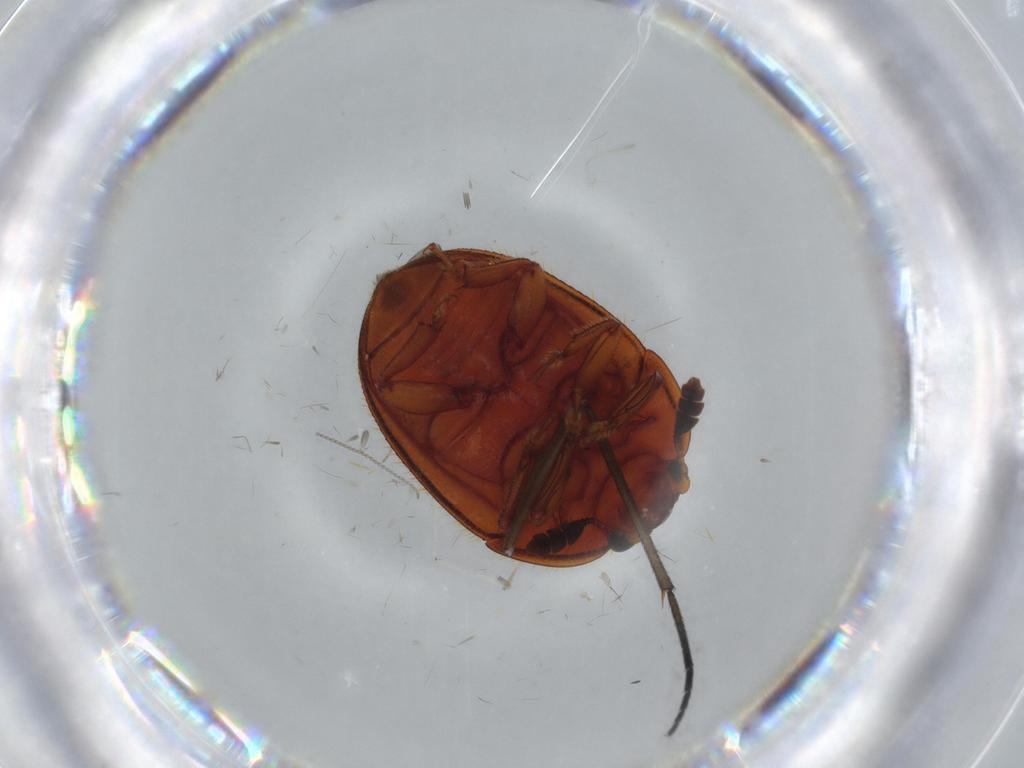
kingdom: Animalia
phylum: Arthropoda
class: Insecta
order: Coleoptera
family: Nitidulidae
